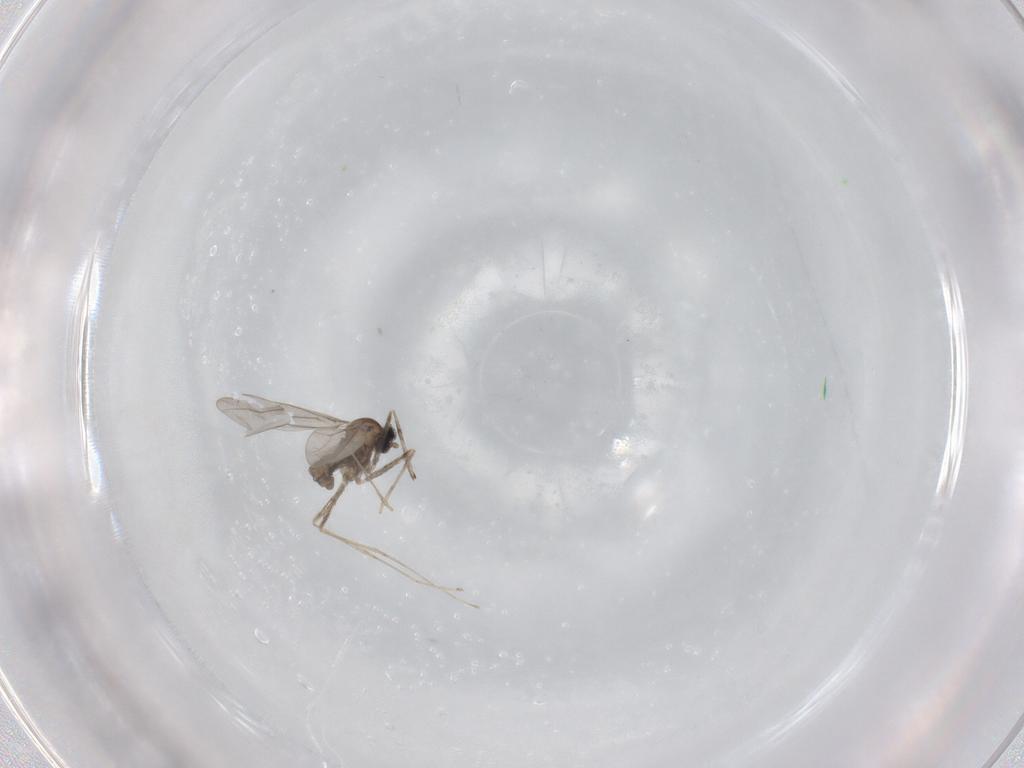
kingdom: Animalia
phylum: Arthropoda
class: Insecta
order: Diptera
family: Cecidomyiidae
